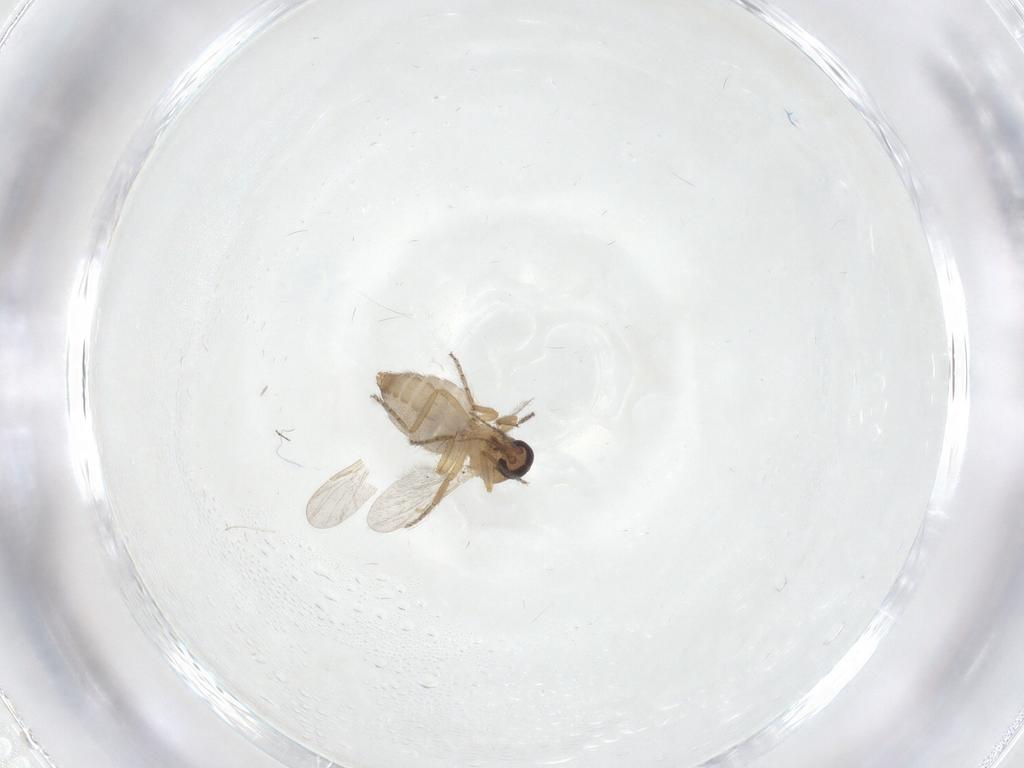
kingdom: Animalia
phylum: Arthropoda
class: Insecta
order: Diptera
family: Ceratopogonidae
